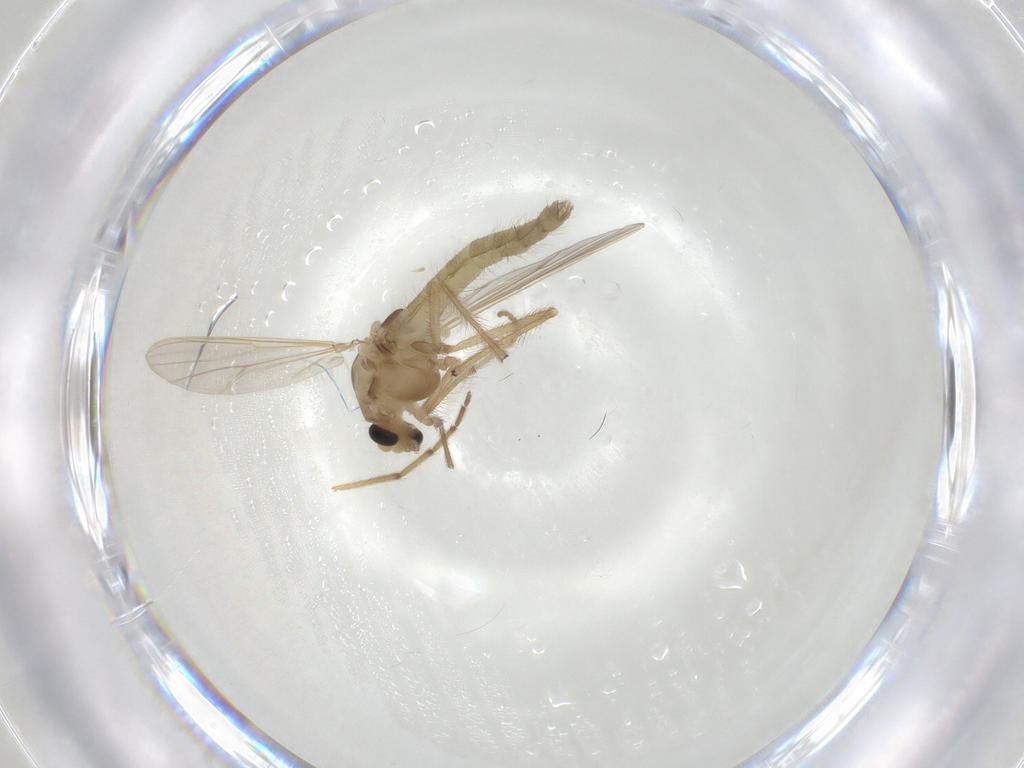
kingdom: Animalia
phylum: Arthropoda
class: Insecta
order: Diptera
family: Chironomidae
